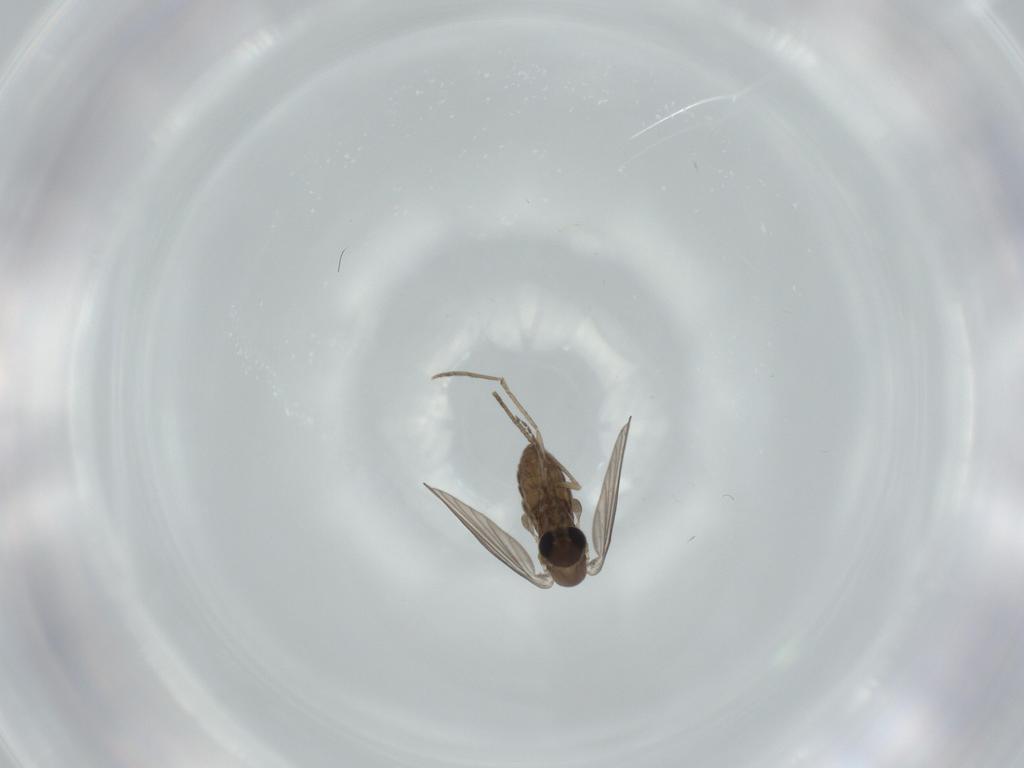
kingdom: Animalia
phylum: Arthropoda
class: Insecta
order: Diptera
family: Psychodidae
